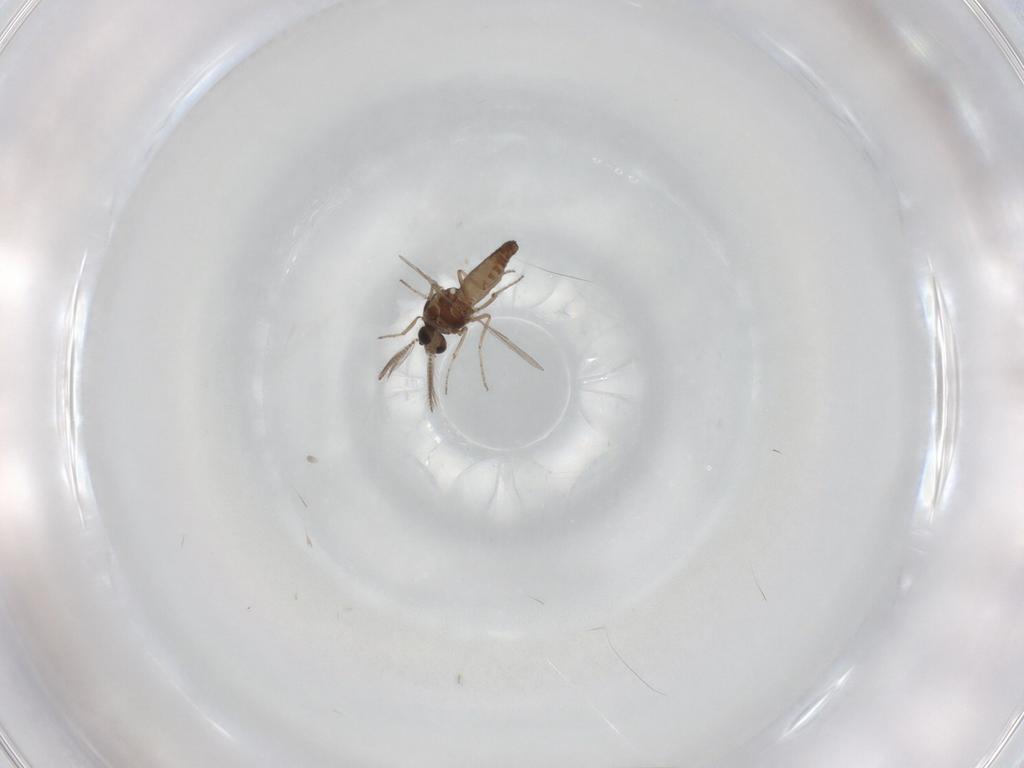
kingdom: Animalia
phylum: Arthropoda
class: Insecta
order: Diptera
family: Ceratopogonidae
